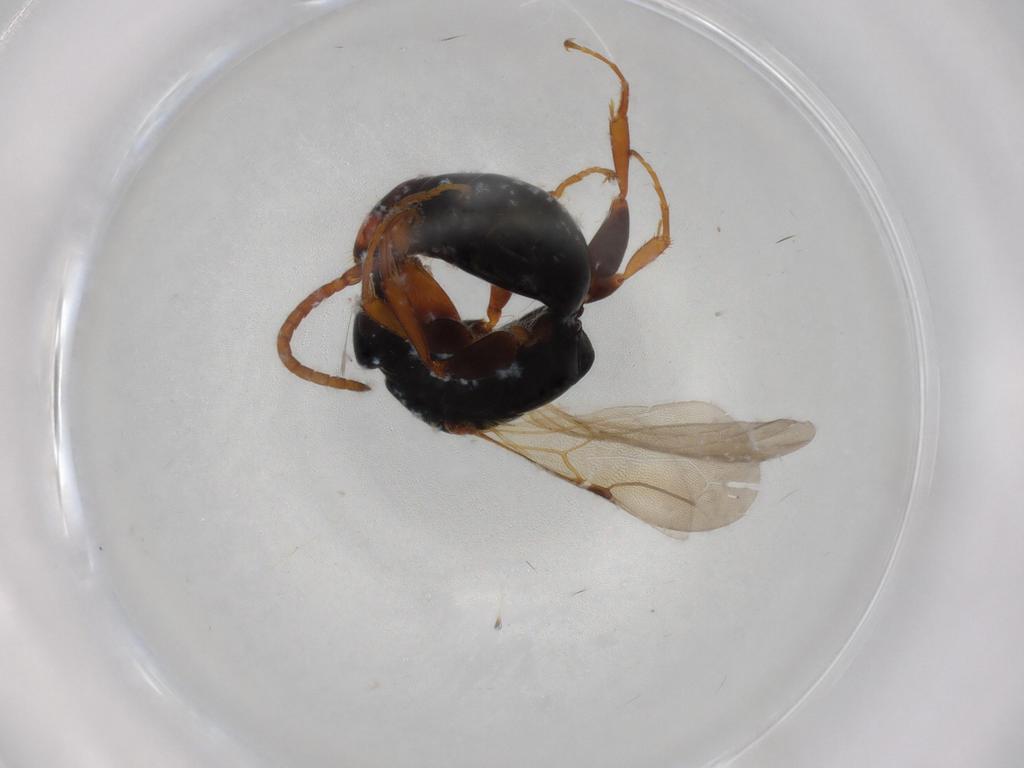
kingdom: Animalia
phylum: Arthropoda
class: Insecta
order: Hymenoptera
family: Bethylidae
